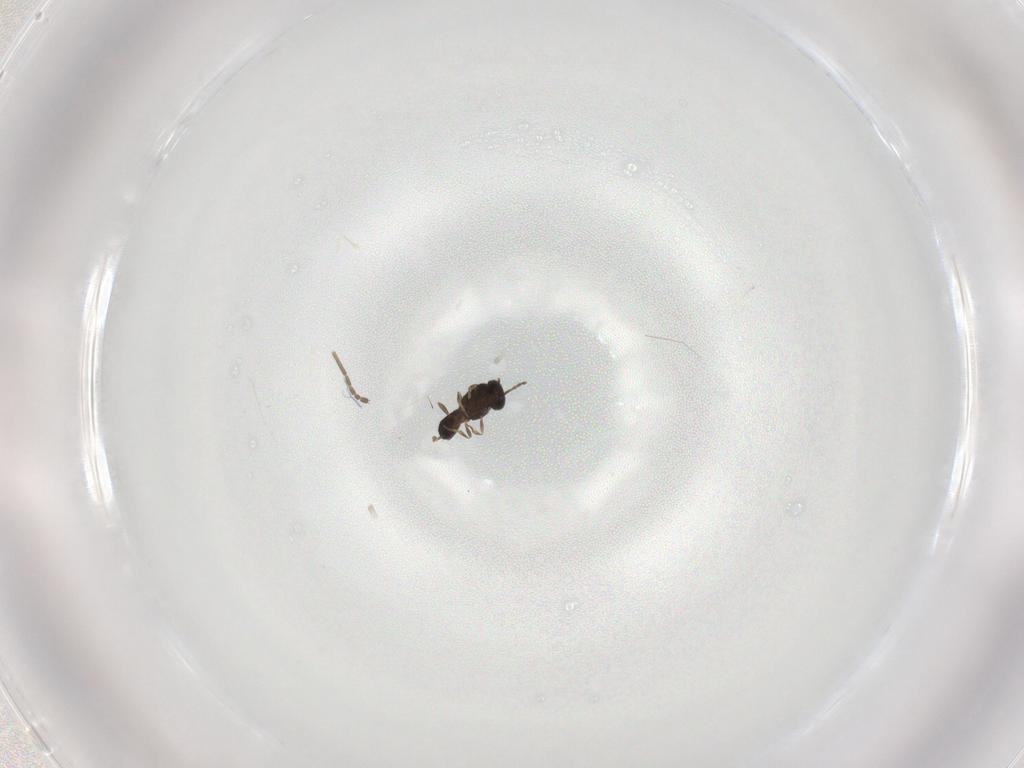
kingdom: Animalia
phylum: Arthropoda
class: Insecta
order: Hymenoptera
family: Scelionidae
